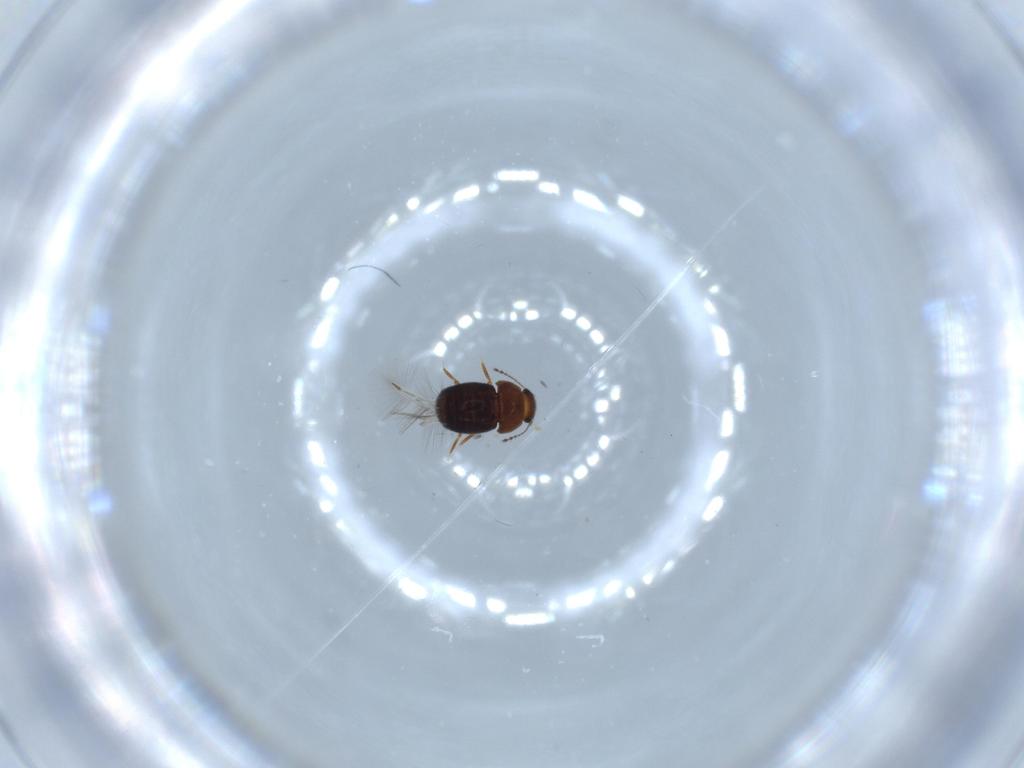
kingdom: Animalia
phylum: Arthropoda
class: Insecta
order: Coleoptera
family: Ptiliidae
